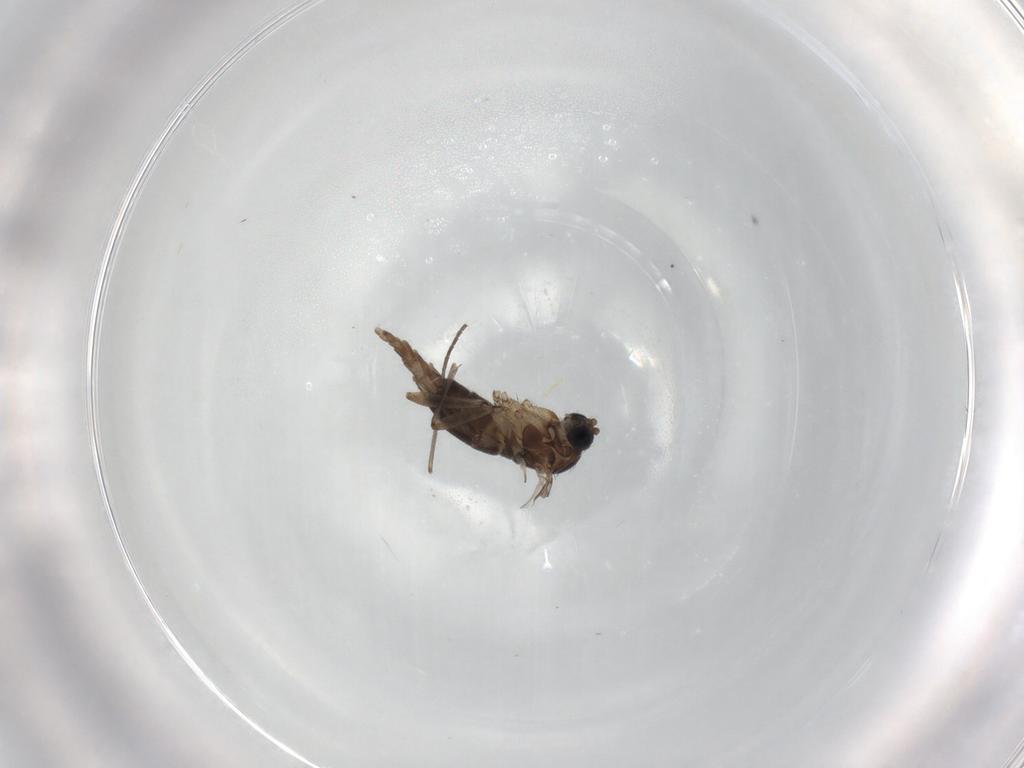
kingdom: Animalia
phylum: Arthropoda
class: Insecta
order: Diptera
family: Sciaridae
